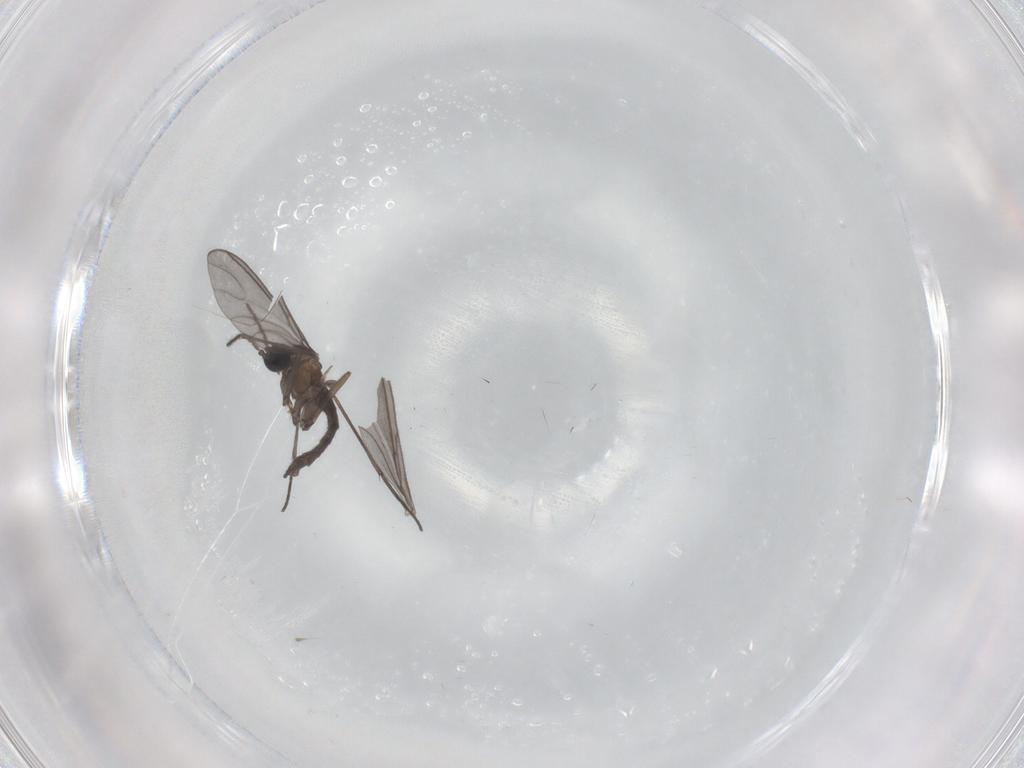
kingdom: Animalia
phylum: Arthropoda
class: Insecta
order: Diptera
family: Sciaridae
